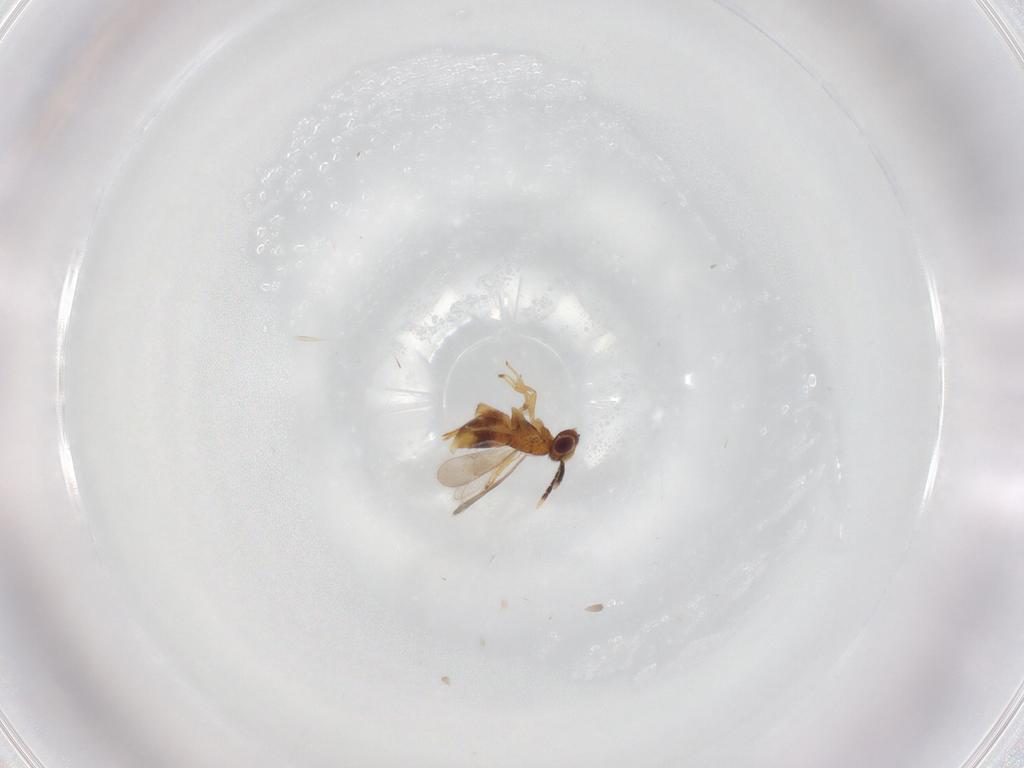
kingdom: Animalia
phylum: Arthropoda
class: Insecta
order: Hymenoptera
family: Aphelinidae
